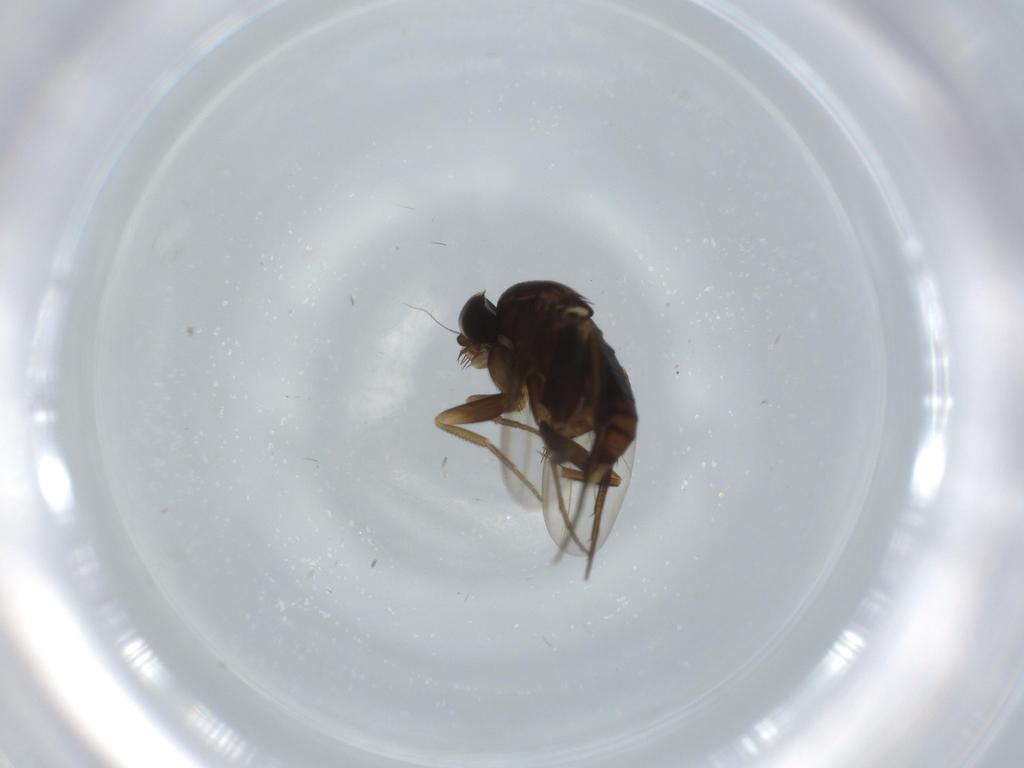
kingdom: Animalia
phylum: Arthropoda
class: Insecta
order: Diptera
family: Phoridae
